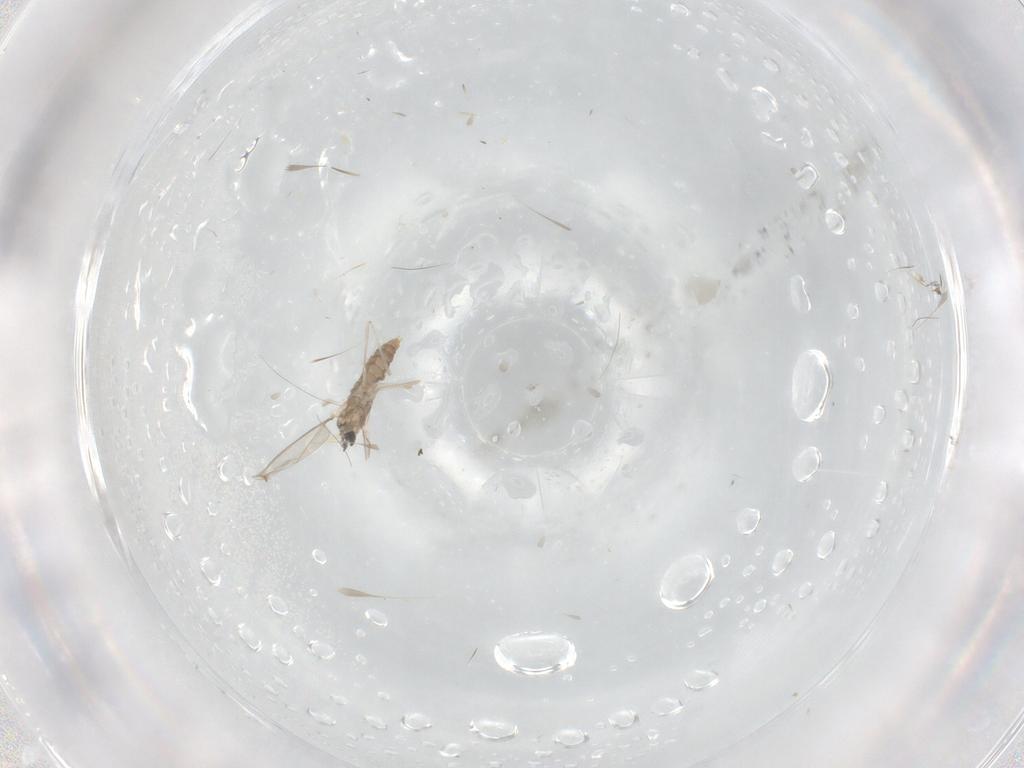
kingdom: Animalia
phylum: Arthropoda
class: Insecta
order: Diptera
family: Cecidomyiidae
